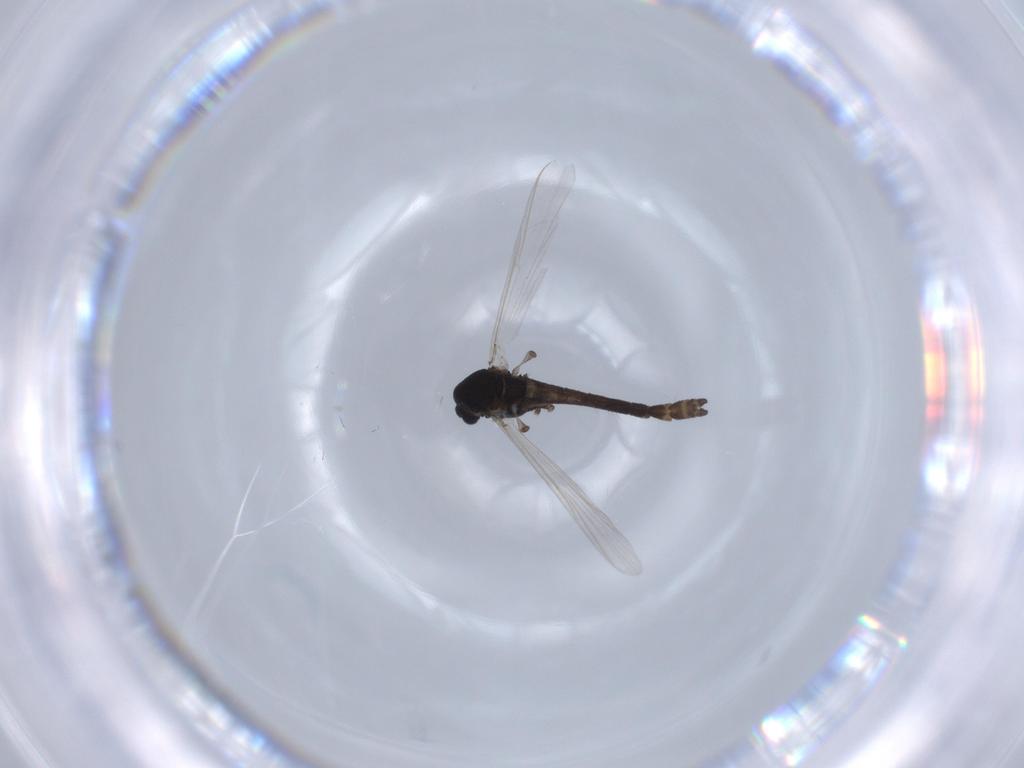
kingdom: Animalia
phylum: Arthropoda
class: Insecta
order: Diptera
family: Chironomidae
